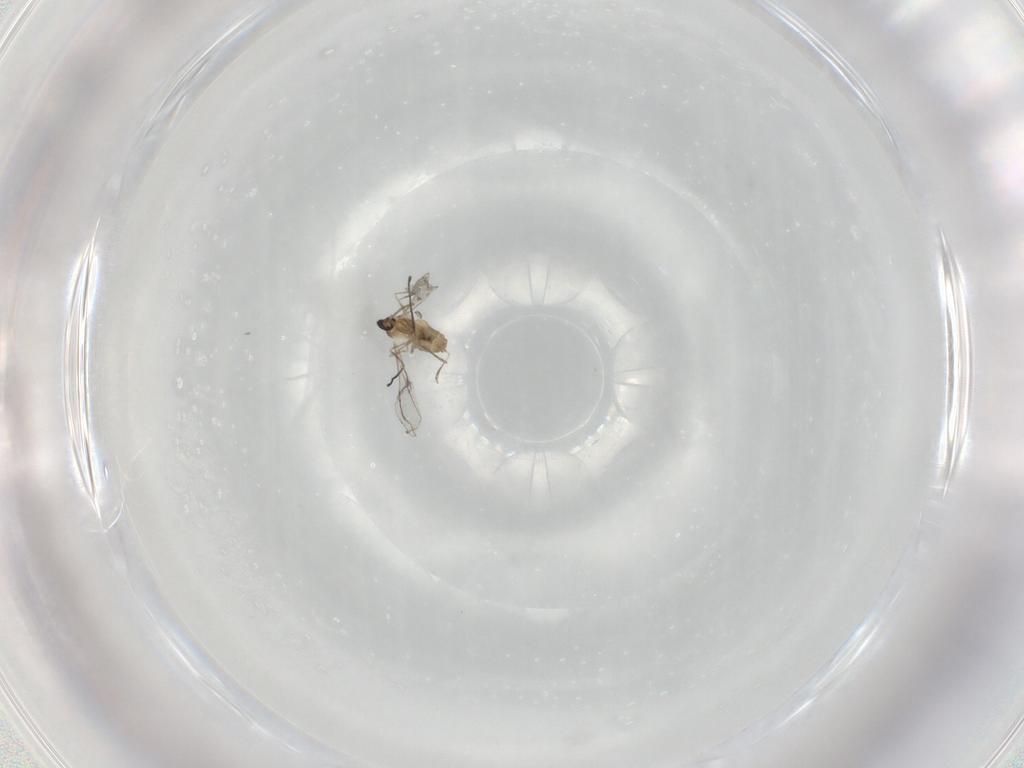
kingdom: Animalia
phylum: Arthropoda
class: Insecta
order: Diptera
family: Cecidomyiidae
